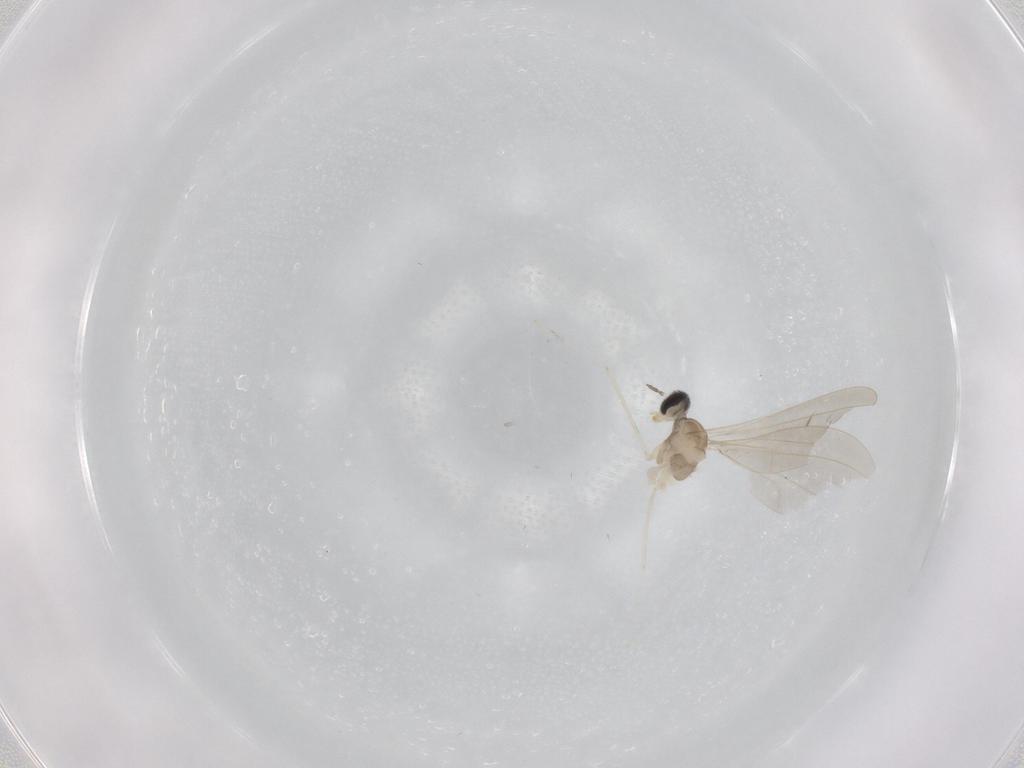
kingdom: Animalia
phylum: Arthropoda
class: Insecta
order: Diptera
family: Cecidomyiidae
